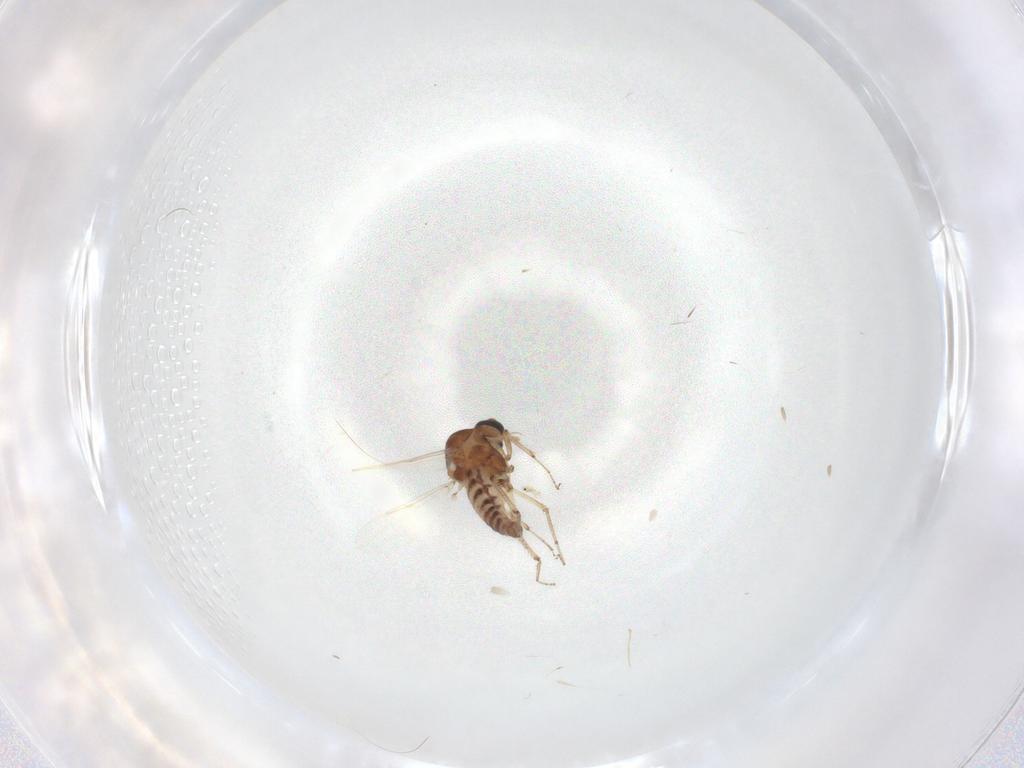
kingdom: Animalia
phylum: Arthropoda
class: Insecta
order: Diptera
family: Ceratopogonidae
